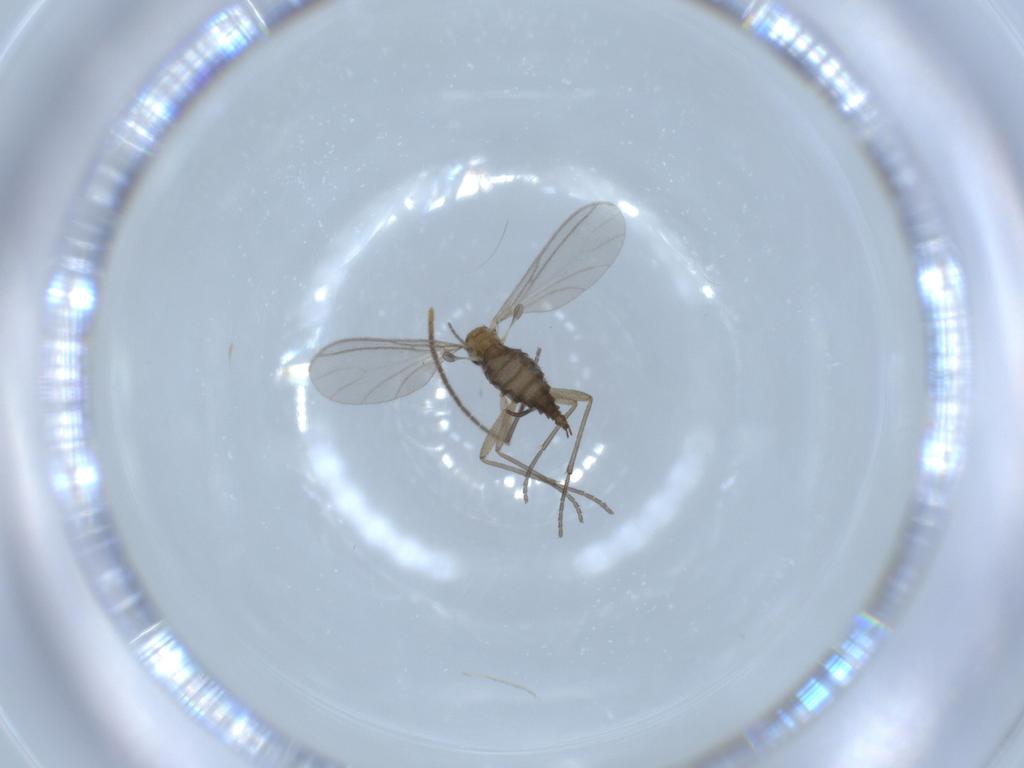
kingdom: Animalia
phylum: Arthropoda
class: Insecta
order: Diptera
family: Sciaridae
